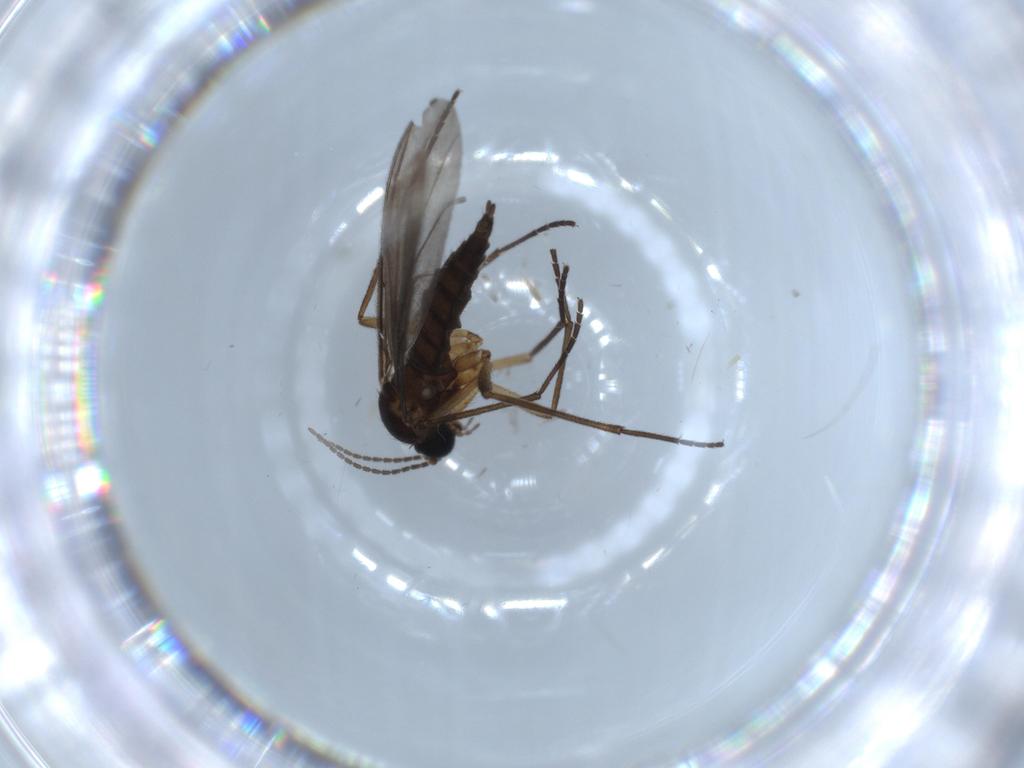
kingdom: Animalia
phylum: Arthropoda
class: Insecta
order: Diptera
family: Sciaridae
